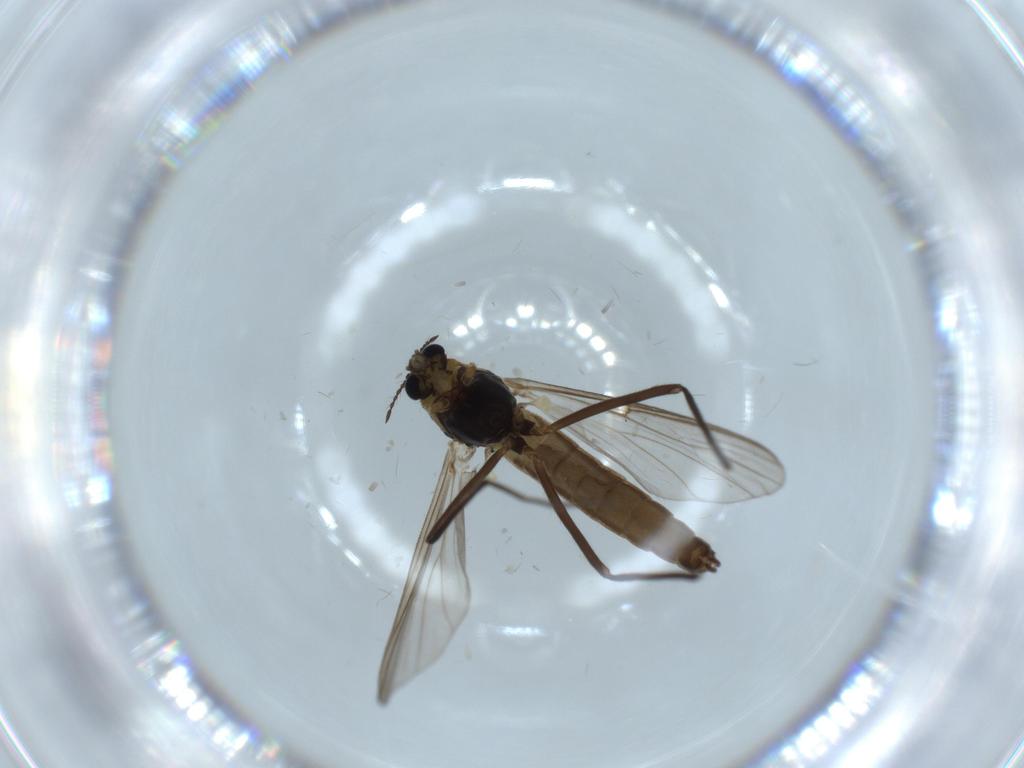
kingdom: Animalia
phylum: Arthropoda
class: Insecta
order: Diptera
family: Chironomidae
